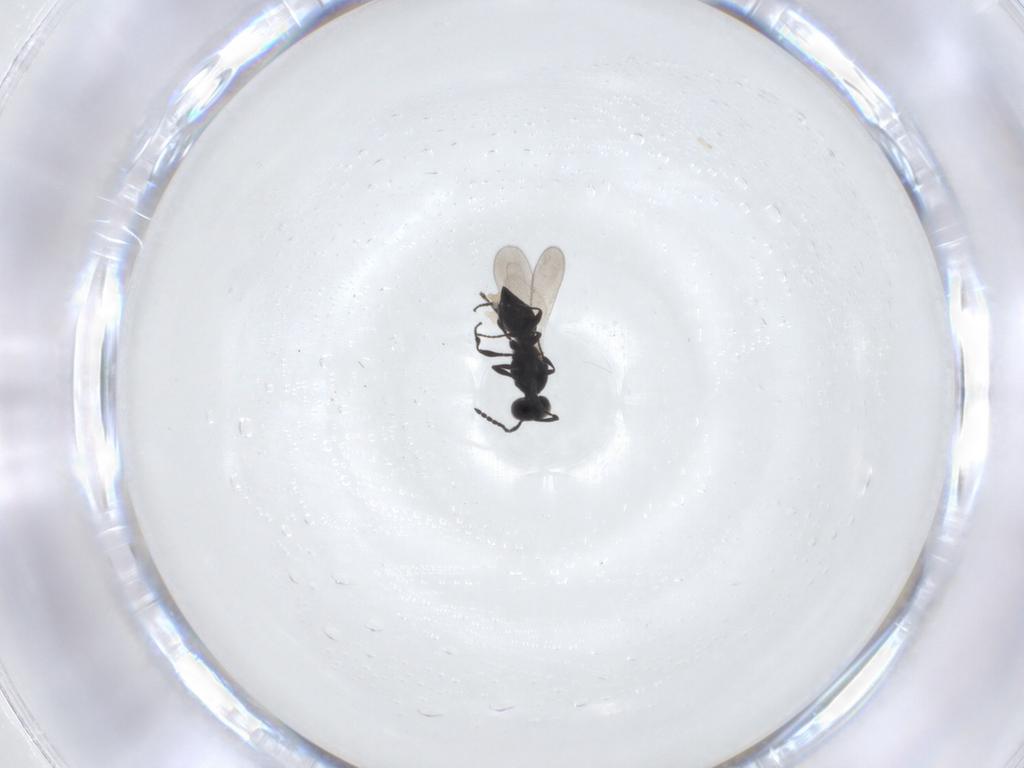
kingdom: Animalia
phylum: Arthropoda
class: Insecta
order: Hymenoptera
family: Platygastridae
